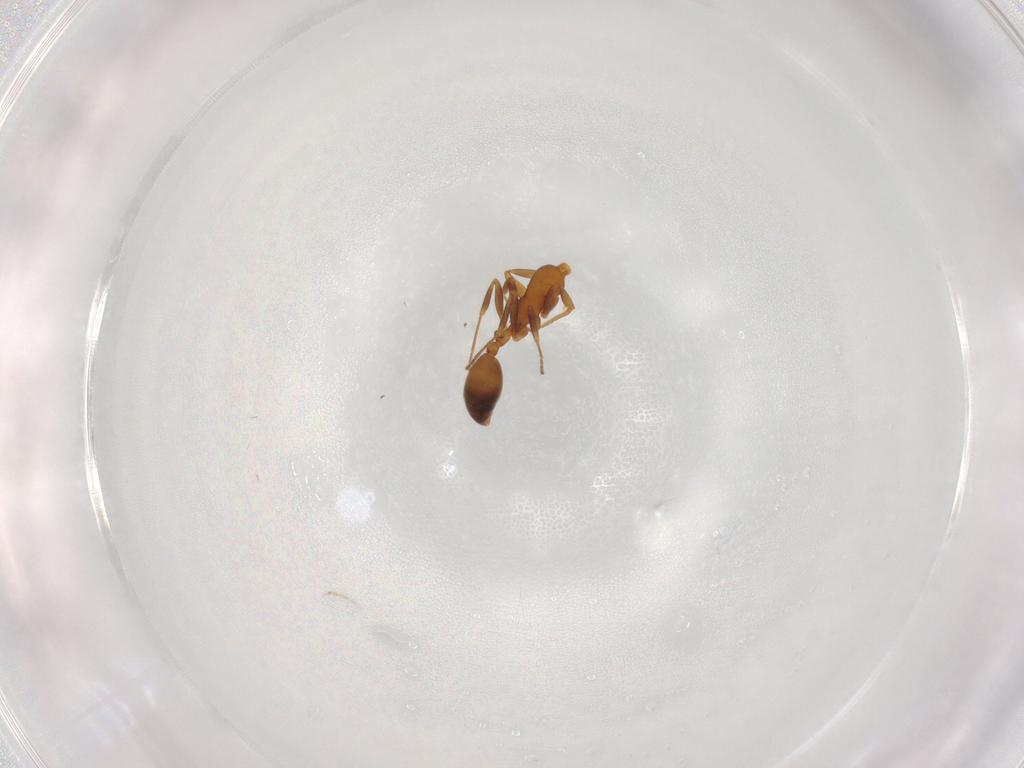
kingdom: Animalia
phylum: Arthropoda
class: Insecta
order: Hymenoptera
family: Formicidae
